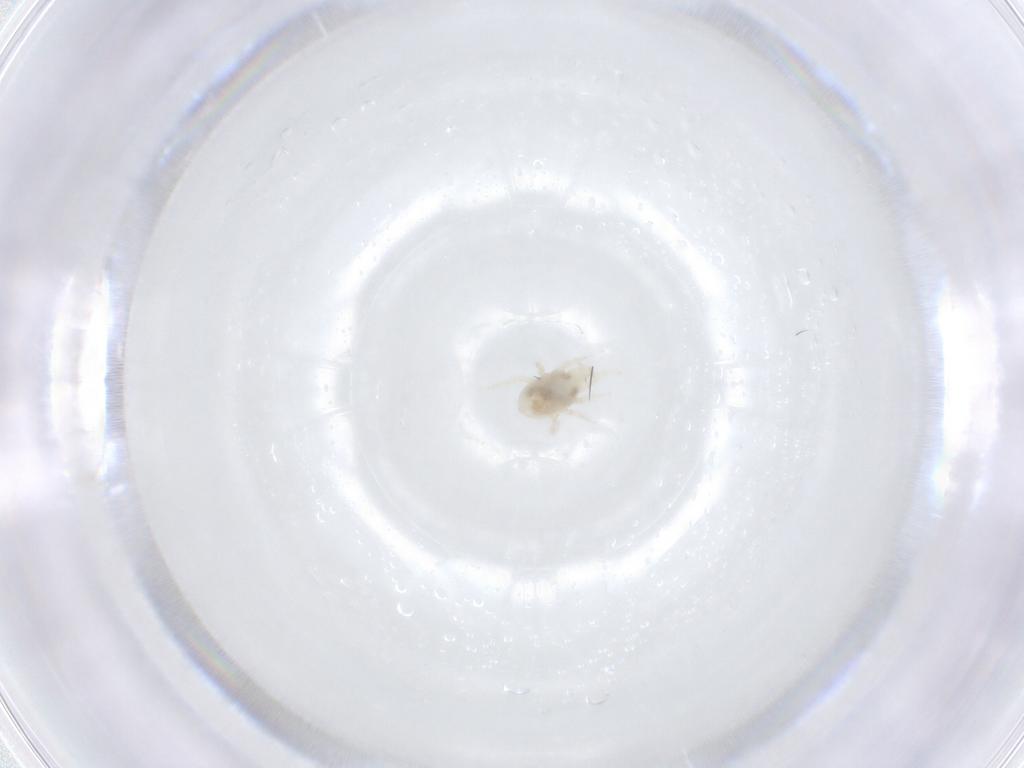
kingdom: Animalia
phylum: Arthropoda
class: Arachnida
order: Mesostigmata
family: Melicharidae
